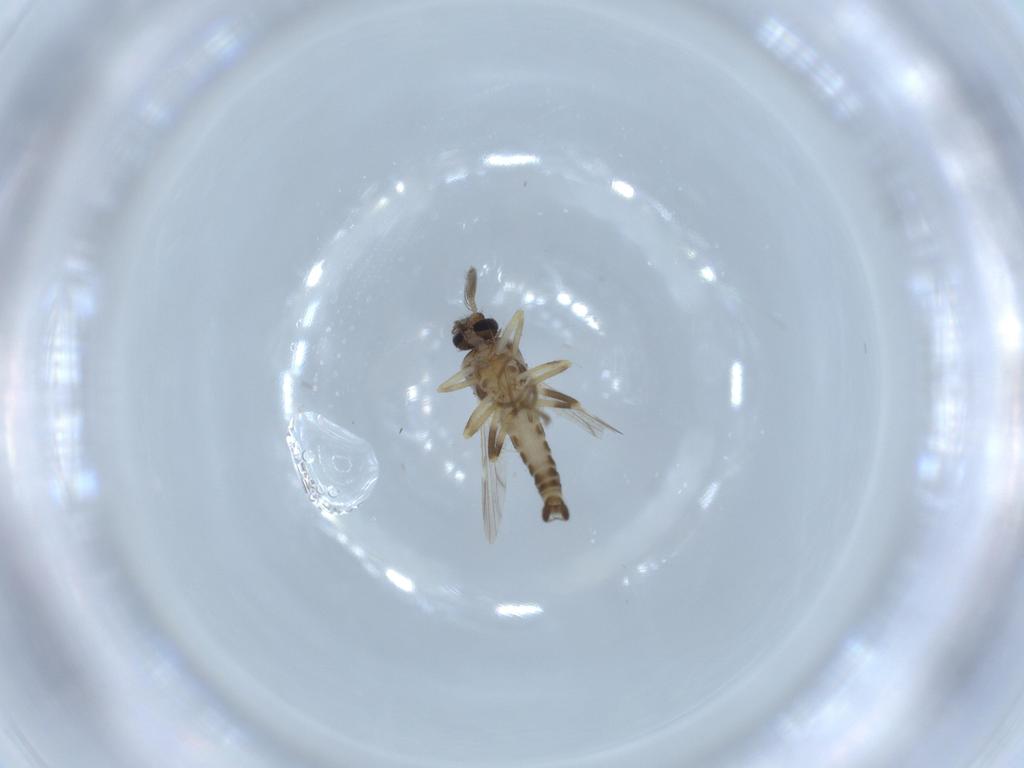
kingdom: Animalia
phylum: Arthropoda
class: Insecta
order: Diptera
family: Ceratopogonidae
